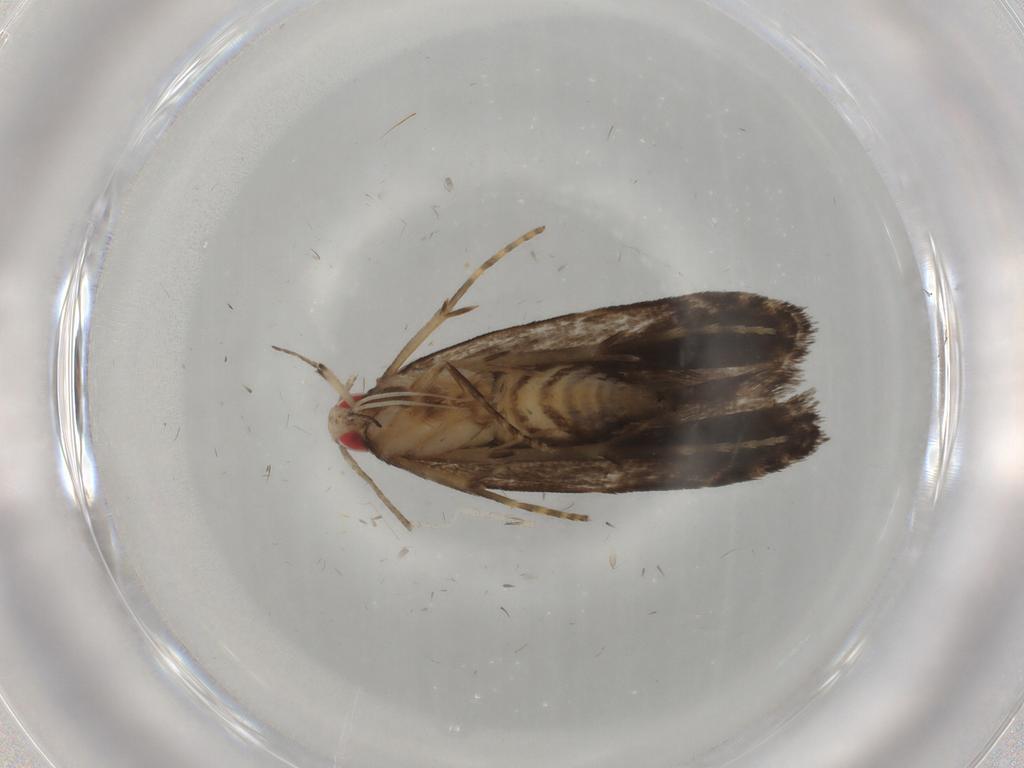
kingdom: Animalia
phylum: Arthropoda
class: Insecta
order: Lepidoptera
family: Gelechiidae
